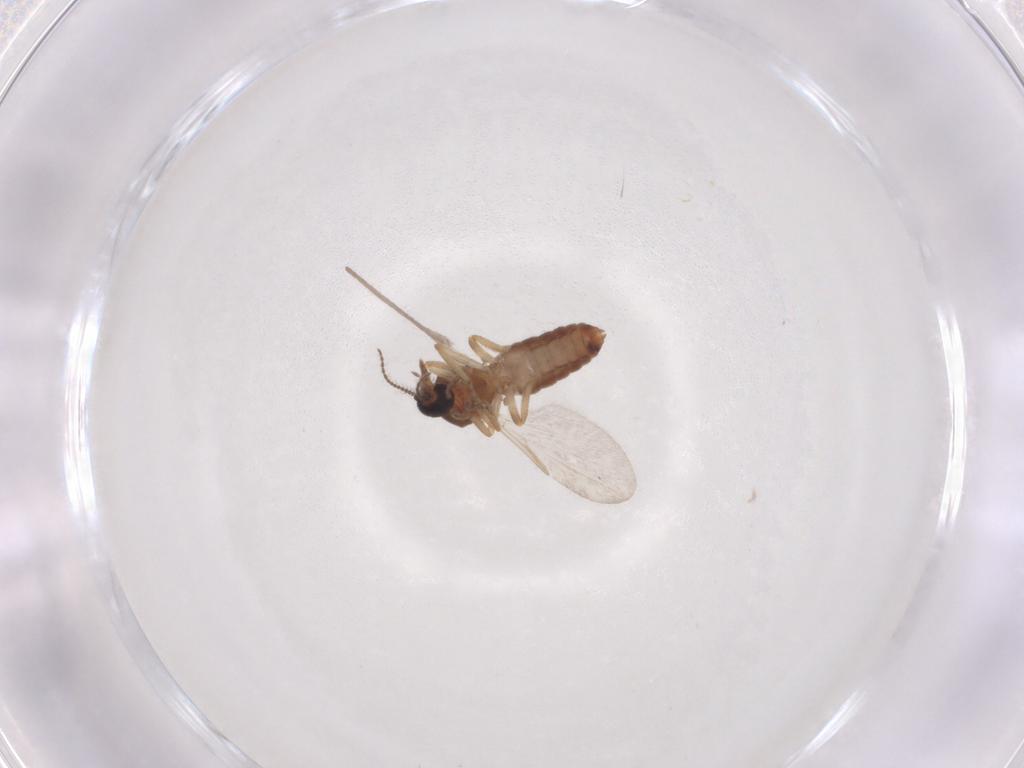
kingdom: Animalia
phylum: Arthropoda
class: Insecta
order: Diptera
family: Ceratopogonidae
